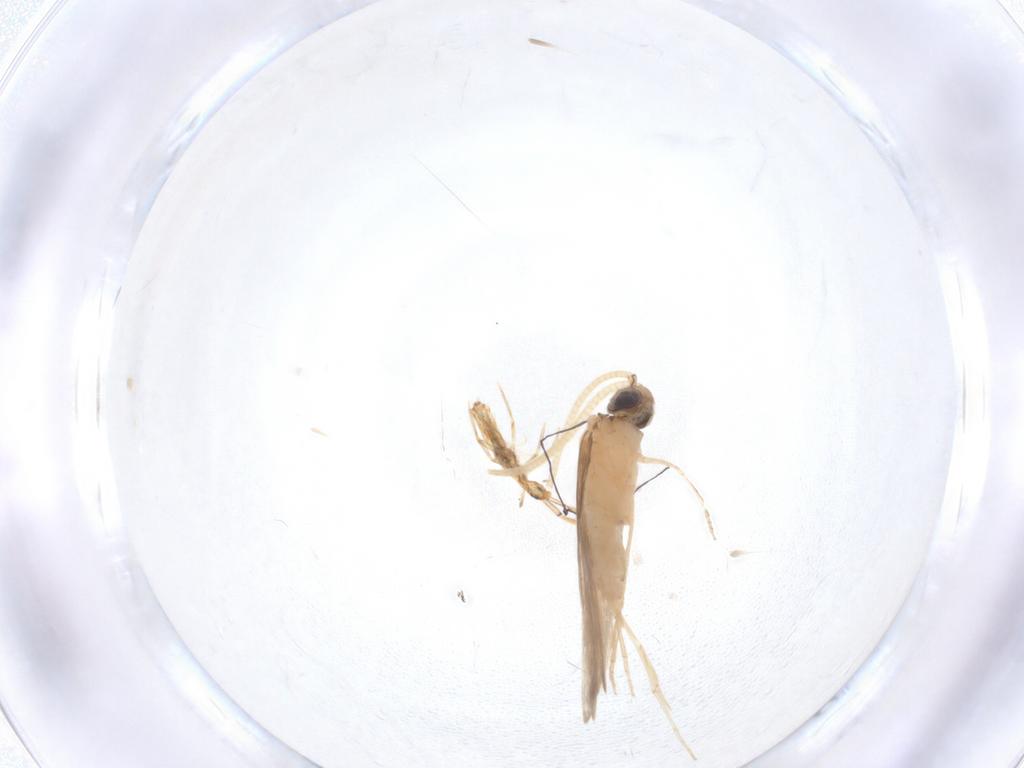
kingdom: Animalia
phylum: Arthropoda
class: Insecta
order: Trichoptera
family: Hydroptilidae
